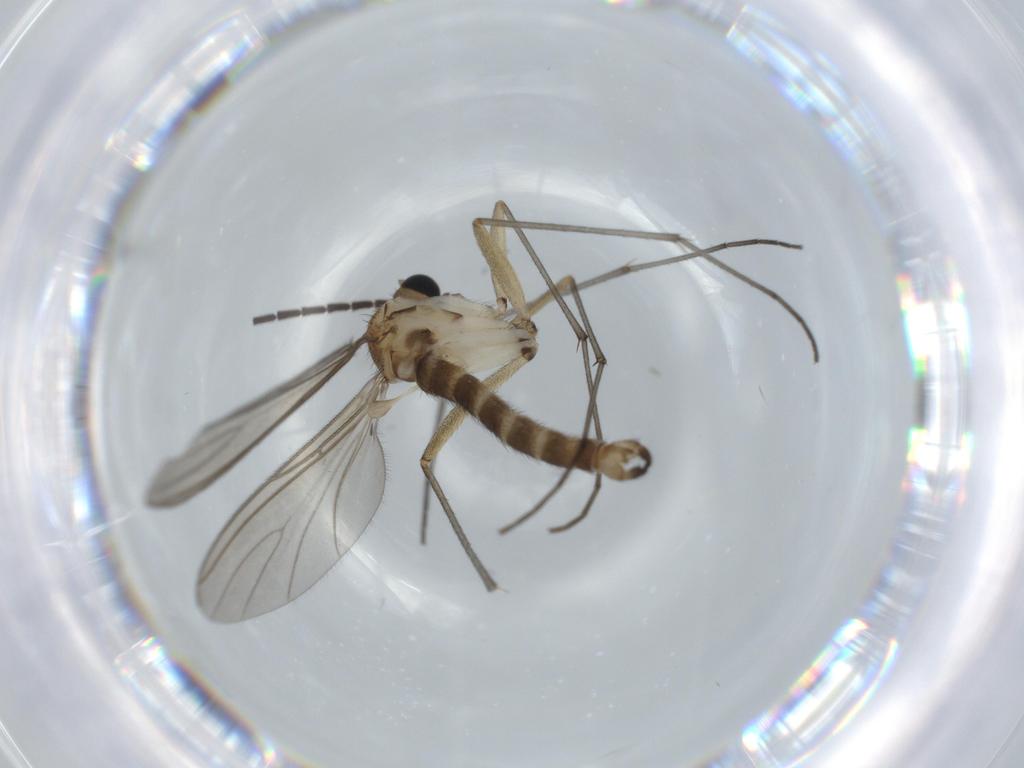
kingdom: Animalia
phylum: Arthropoda
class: Insecta
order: Diptera
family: Sciaridae
